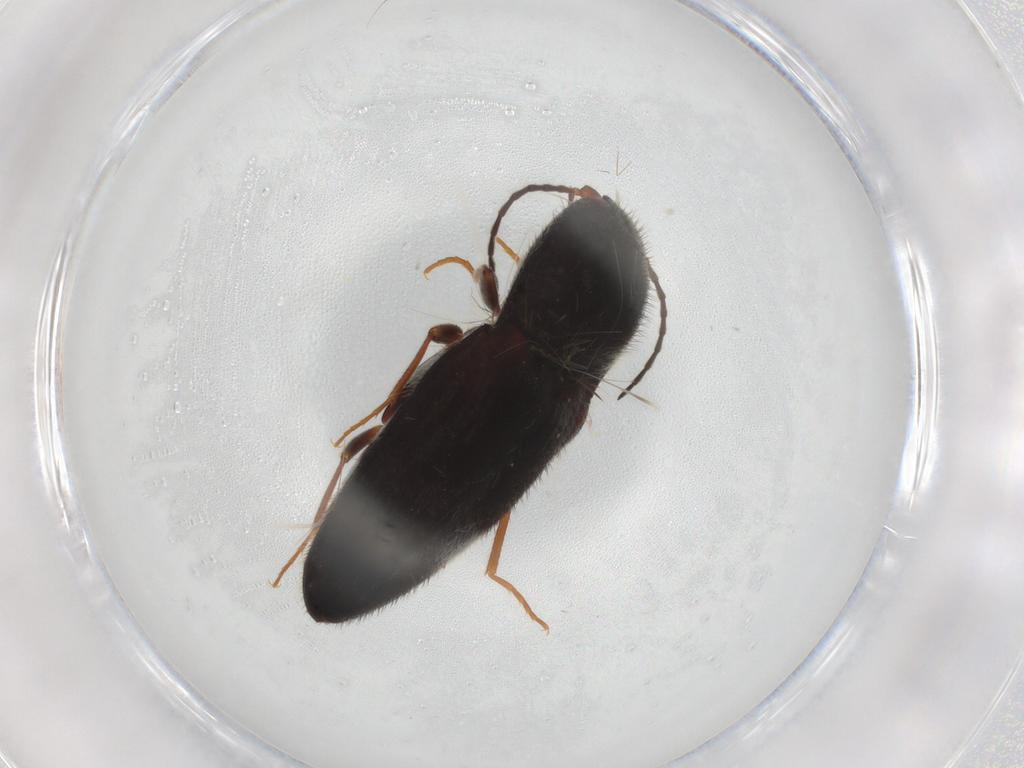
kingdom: Animalia
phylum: Arthropoda
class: Insecta
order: Coleoptera
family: Elateridae
